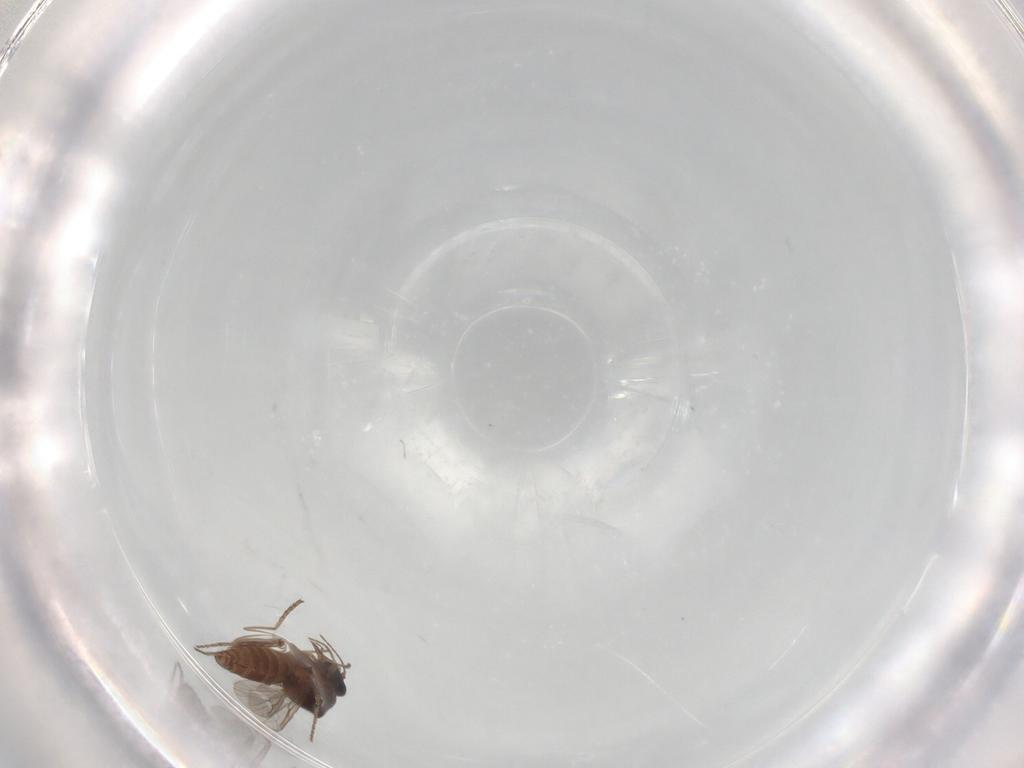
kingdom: Animalia
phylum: Arthropoda
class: Insecta
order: Diptera
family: Ceratopogonidae
